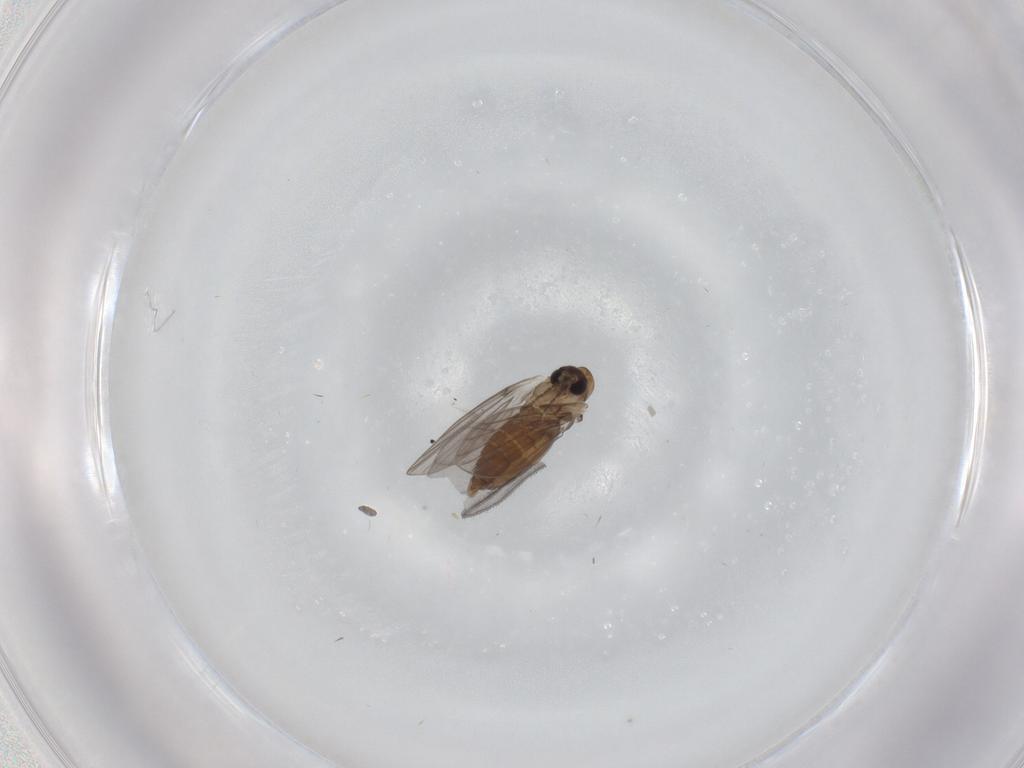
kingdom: Animalia
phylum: Arthropoda
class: Insecta
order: Diptera
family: Sciaridae
